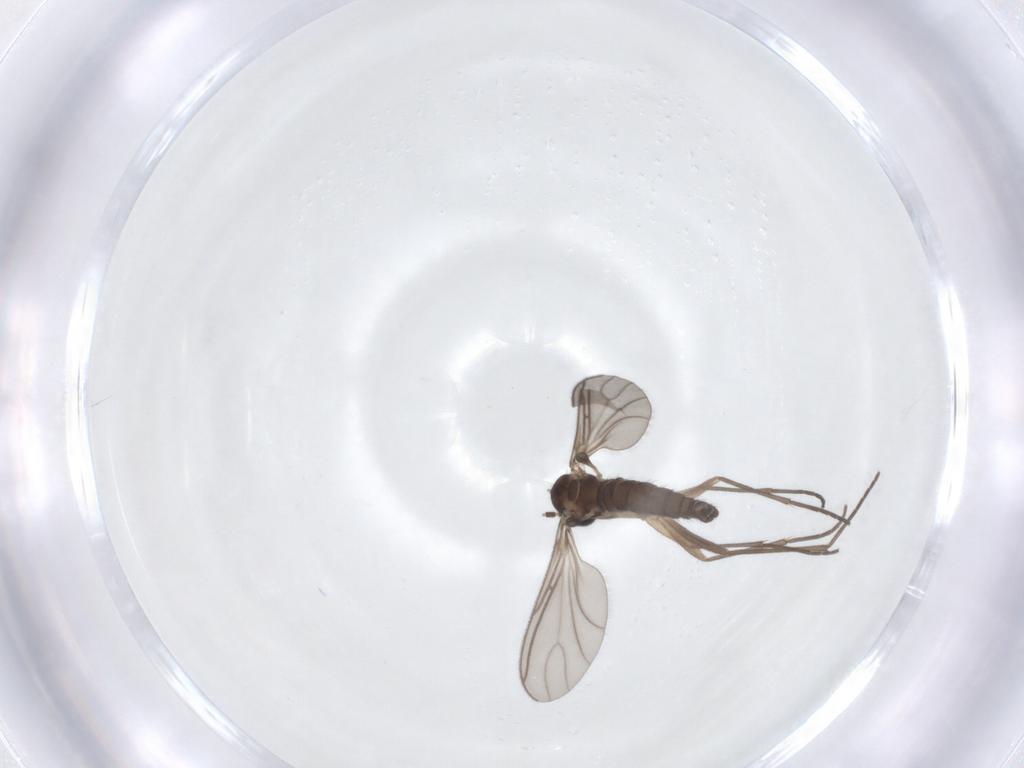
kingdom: Animalia
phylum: Arthropoda
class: Insecta
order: Diptera
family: Sciaridae
